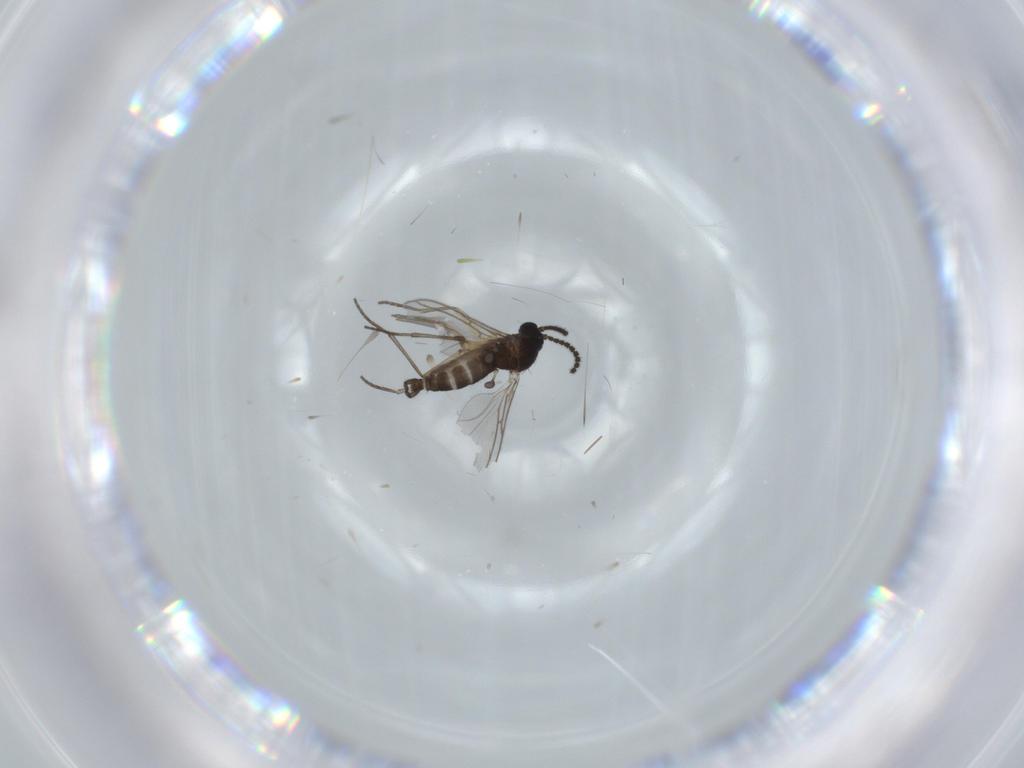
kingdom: Animalia
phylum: Arthropoda
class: Insecta
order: Diptera
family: Sciaridae
